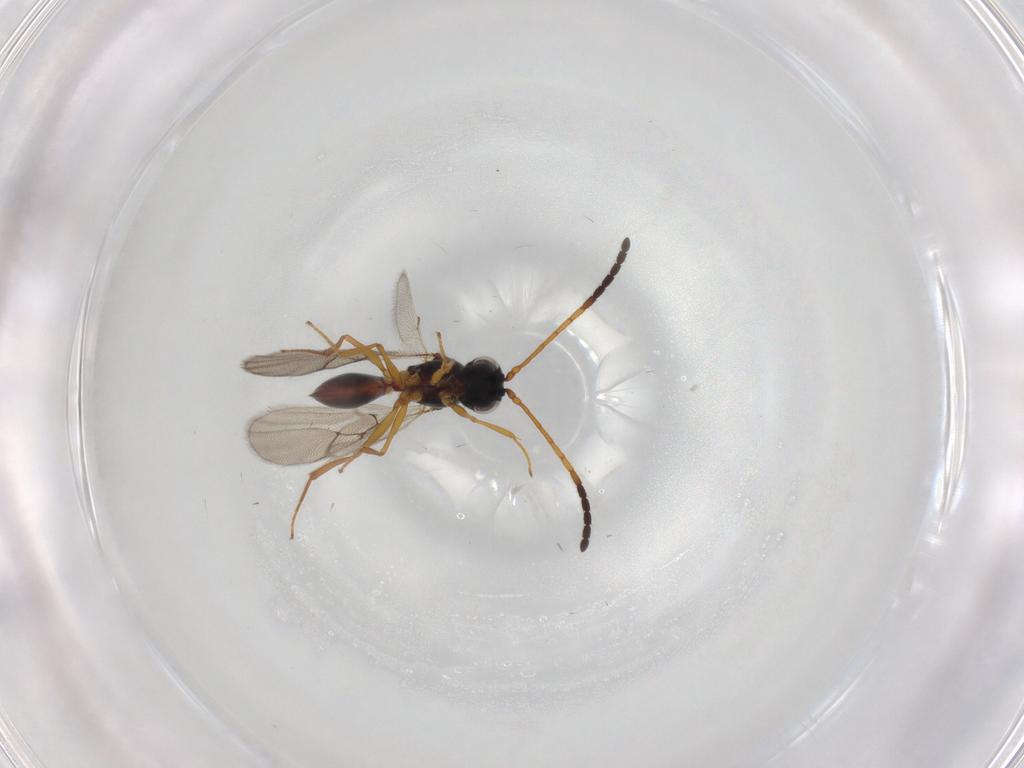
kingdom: Animalia
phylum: Arthropoda
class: Insecta
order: Hymenoptera
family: Figitidae
